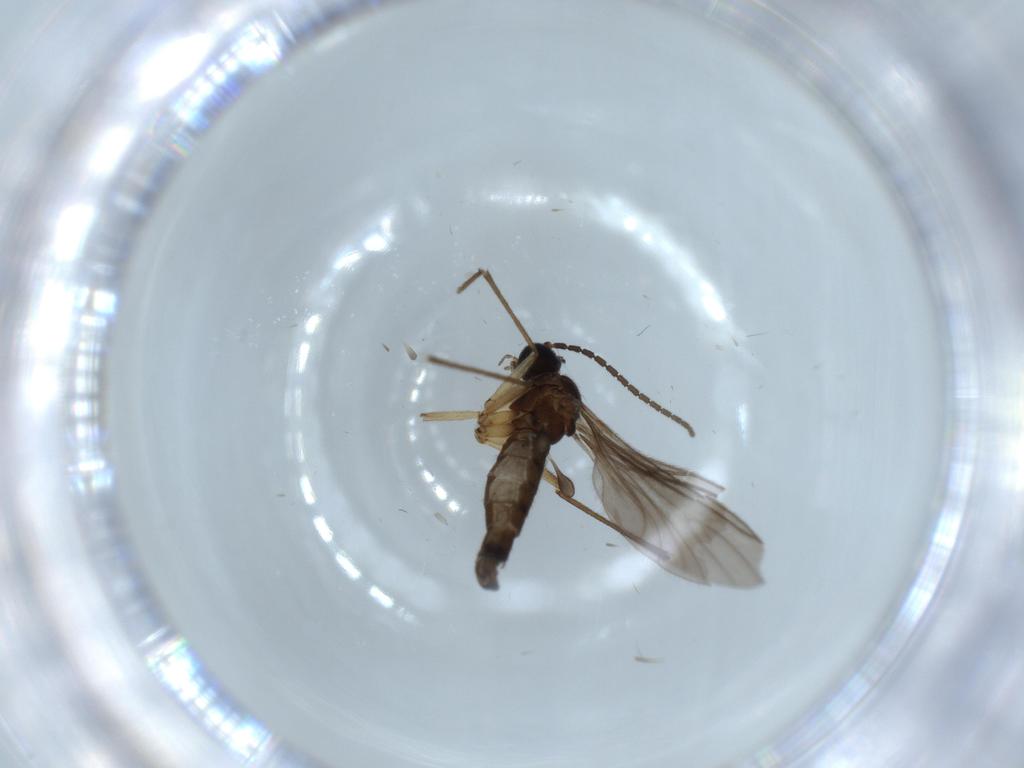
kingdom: Animalia
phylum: Arthropoda
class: Insecta
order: Diptera
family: Sciaridae
